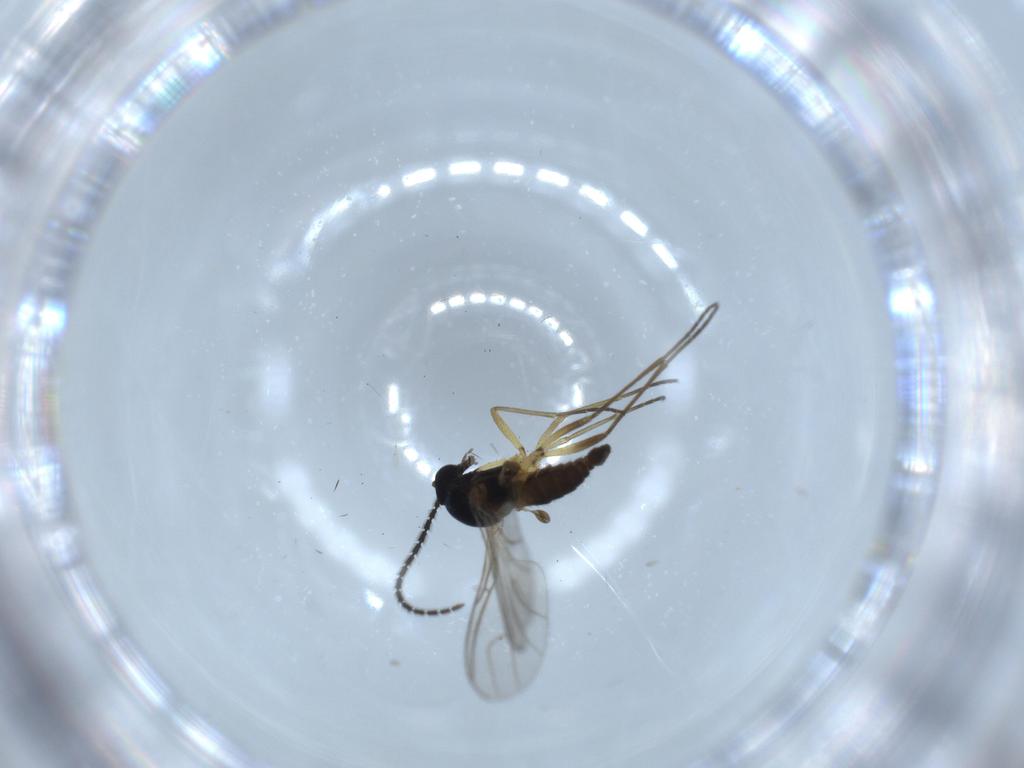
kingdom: Animalia
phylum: Arthropoda
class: Insecta
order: Diptera
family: Sciaridae
